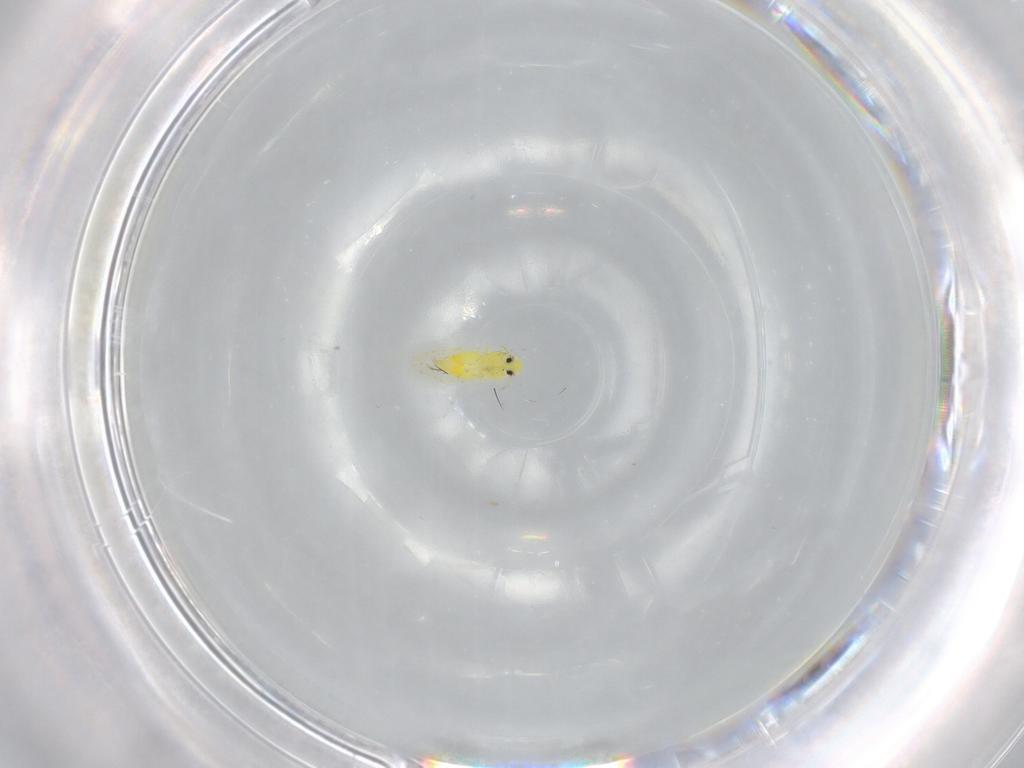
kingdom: Animalia
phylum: Arthropoda
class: Insecta
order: Hemiptera
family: Aleyrodidae
